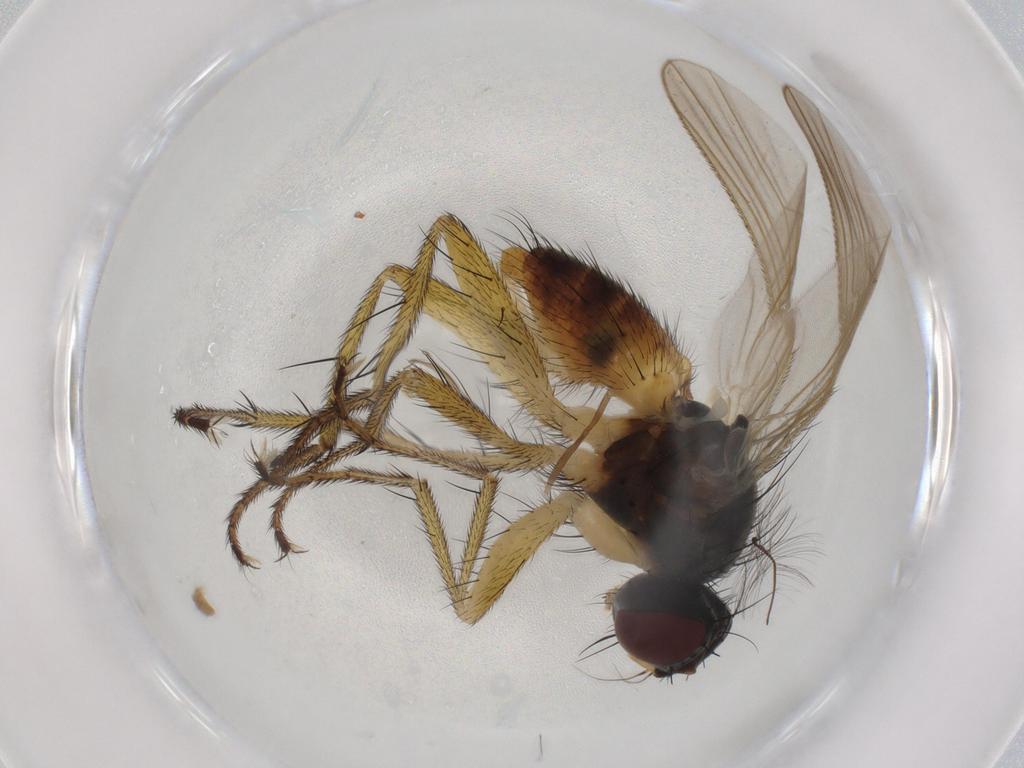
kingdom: Animalia
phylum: Arthropoda
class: Insecta
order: Diptera
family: Muscidae
